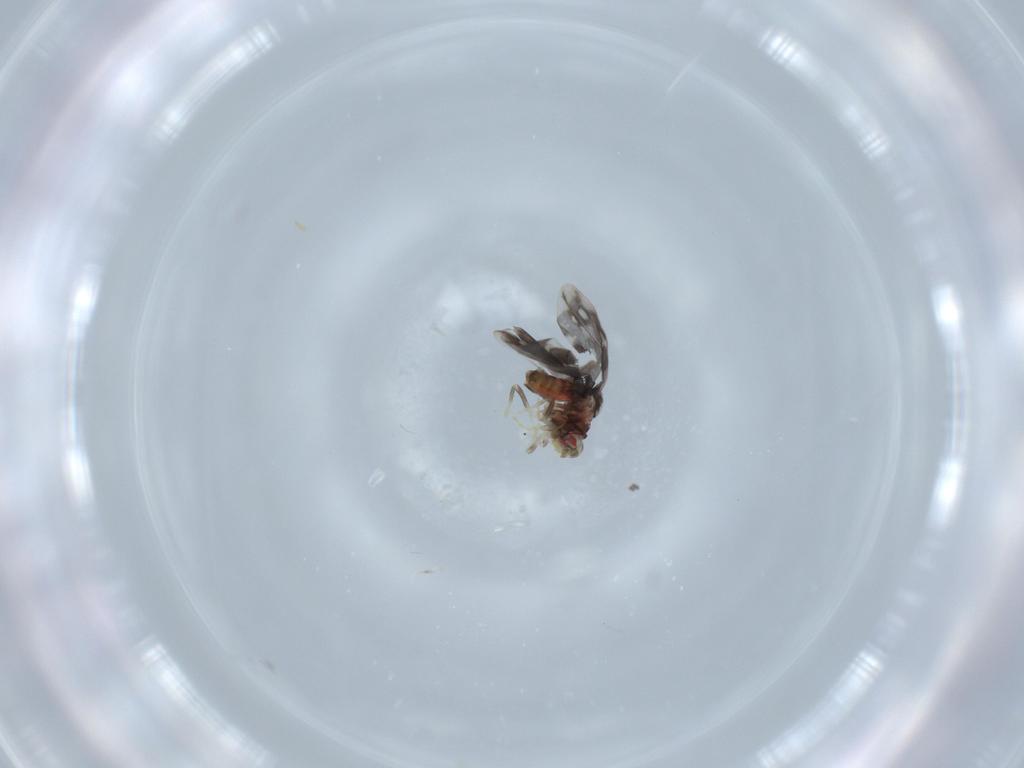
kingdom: Animalia
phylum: Arthropoda
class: Insecta
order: Hemiptera
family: Aleyrodidae
